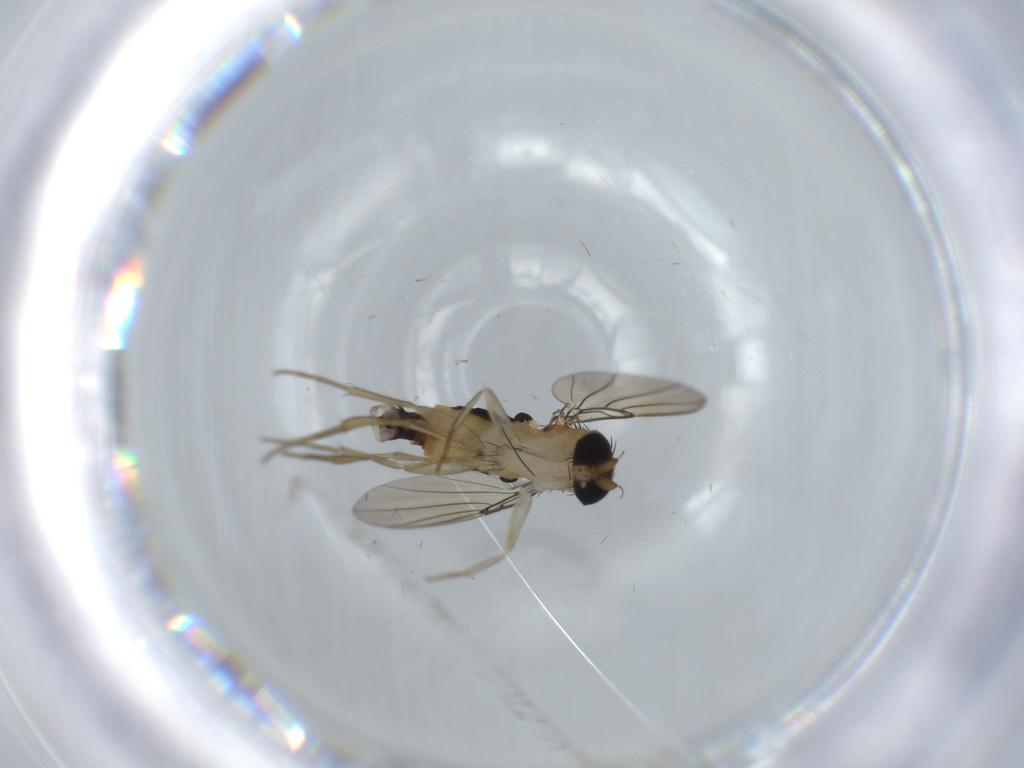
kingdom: Animalia
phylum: Arthropoda
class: Insecta
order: Diptera
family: Phoridae
